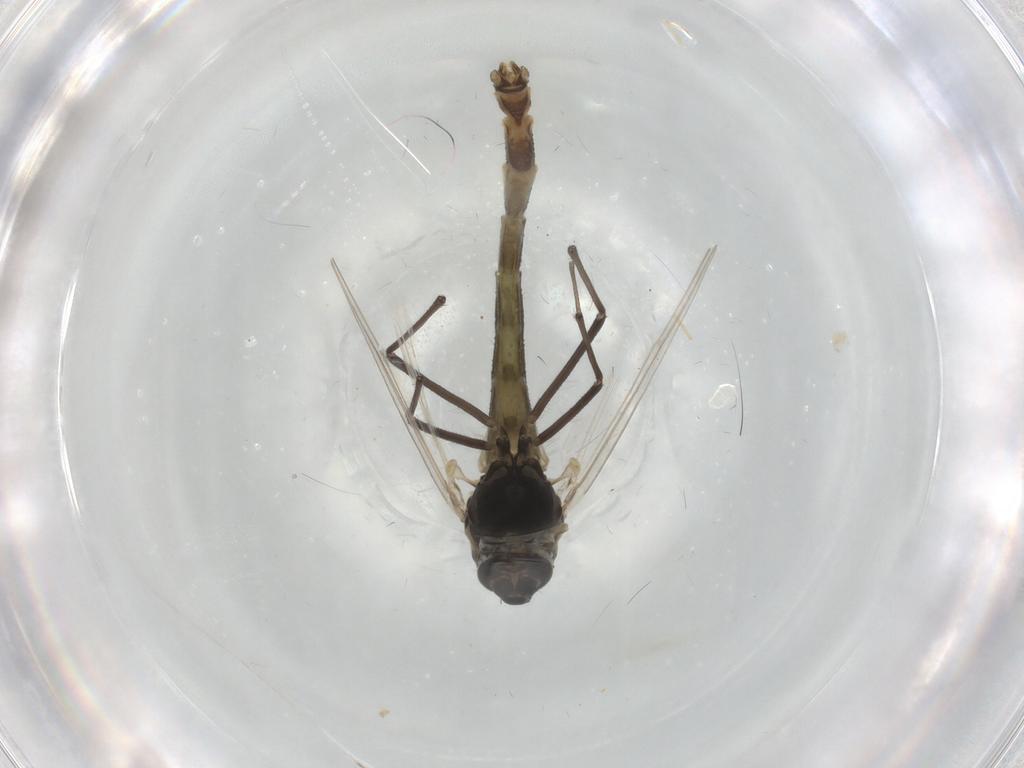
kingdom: Animalia
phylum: Arthropoda
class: Insecta
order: Diptera
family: Chironomidae
